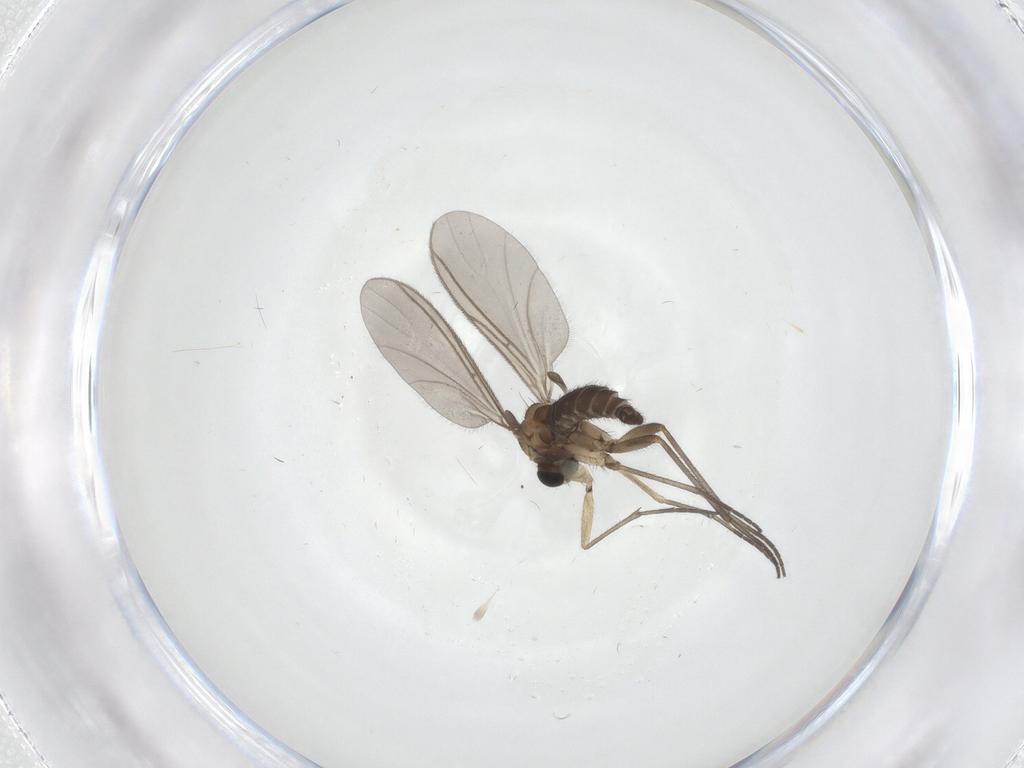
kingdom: Animalia
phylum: Arthropoda
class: Insecta
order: Diptera
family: Sciaridae
